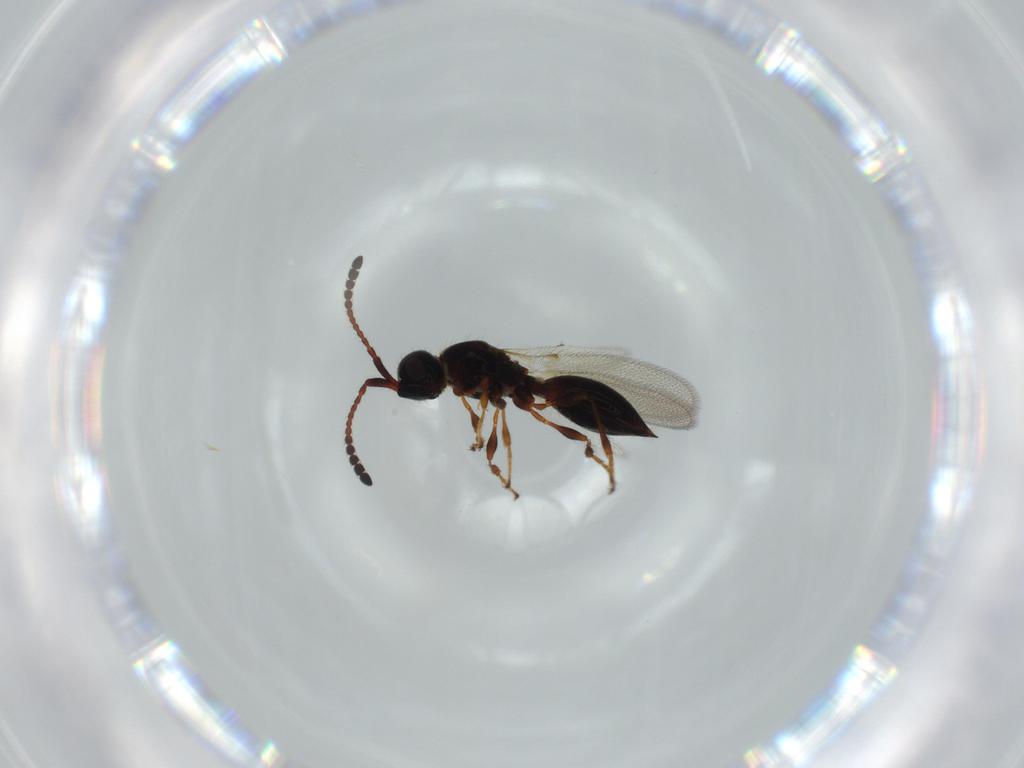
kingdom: Animalia
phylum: Arthropoda
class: Insecta
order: Hymenoptera
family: Diapriidae
